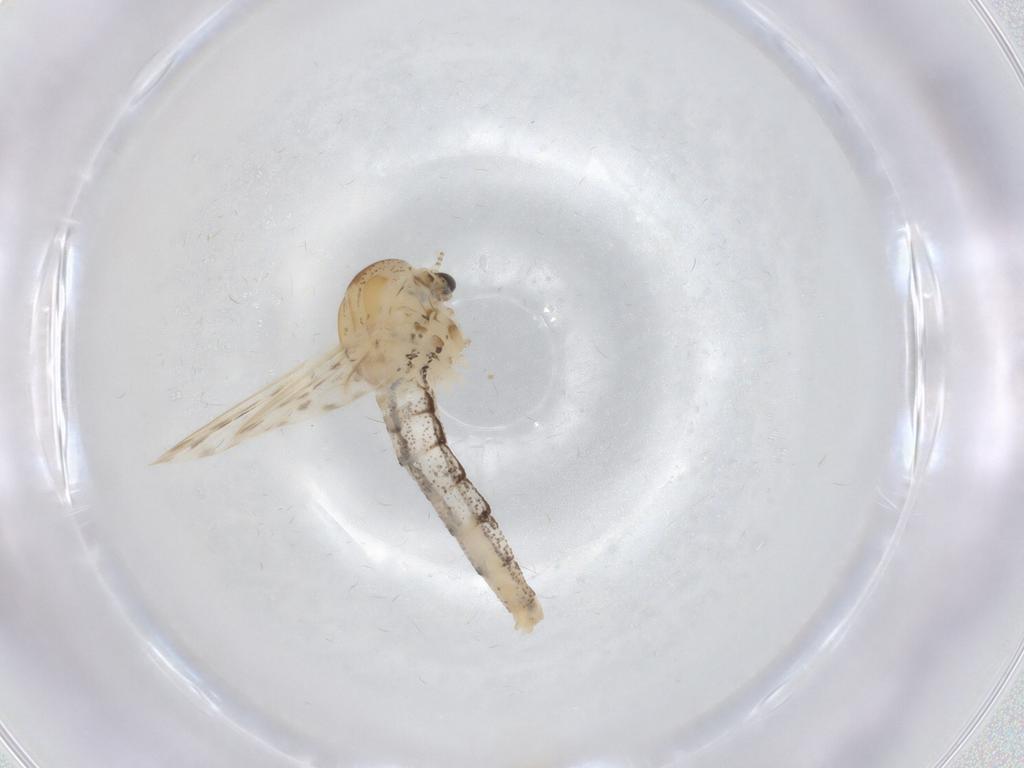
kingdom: Animalia
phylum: Arthropoda
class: Insecta
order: Diptera
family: Chaoboridae
